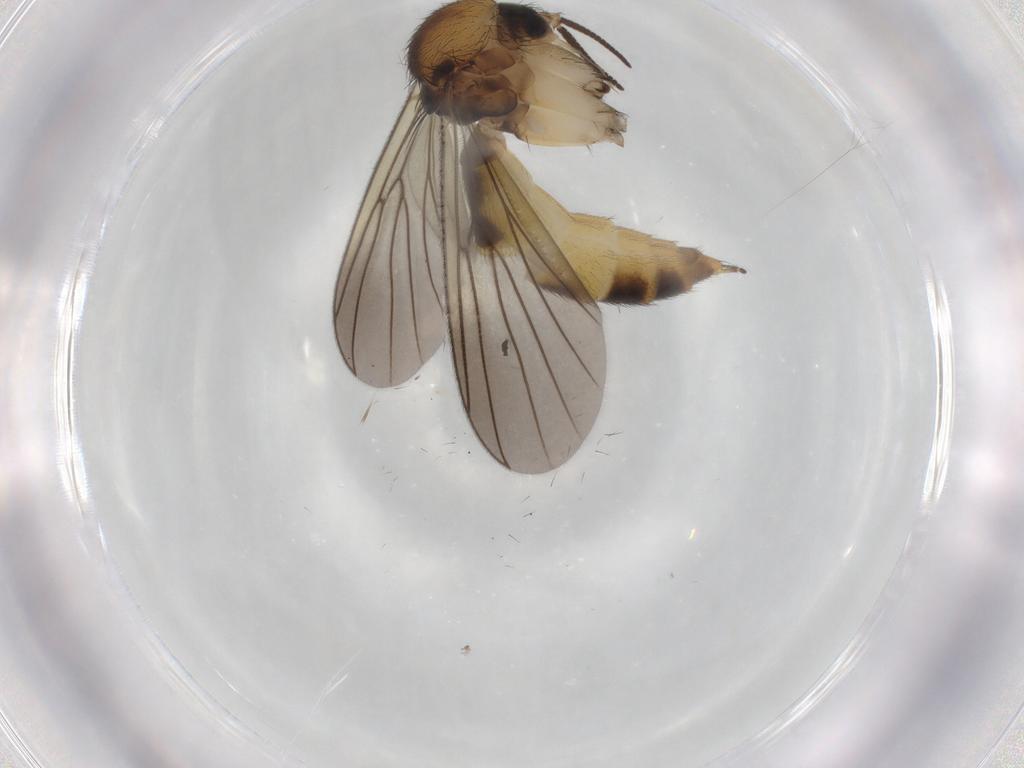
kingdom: Animalia
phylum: Arthropoda
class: Insecta
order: Diptera
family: Mycetophilidae
